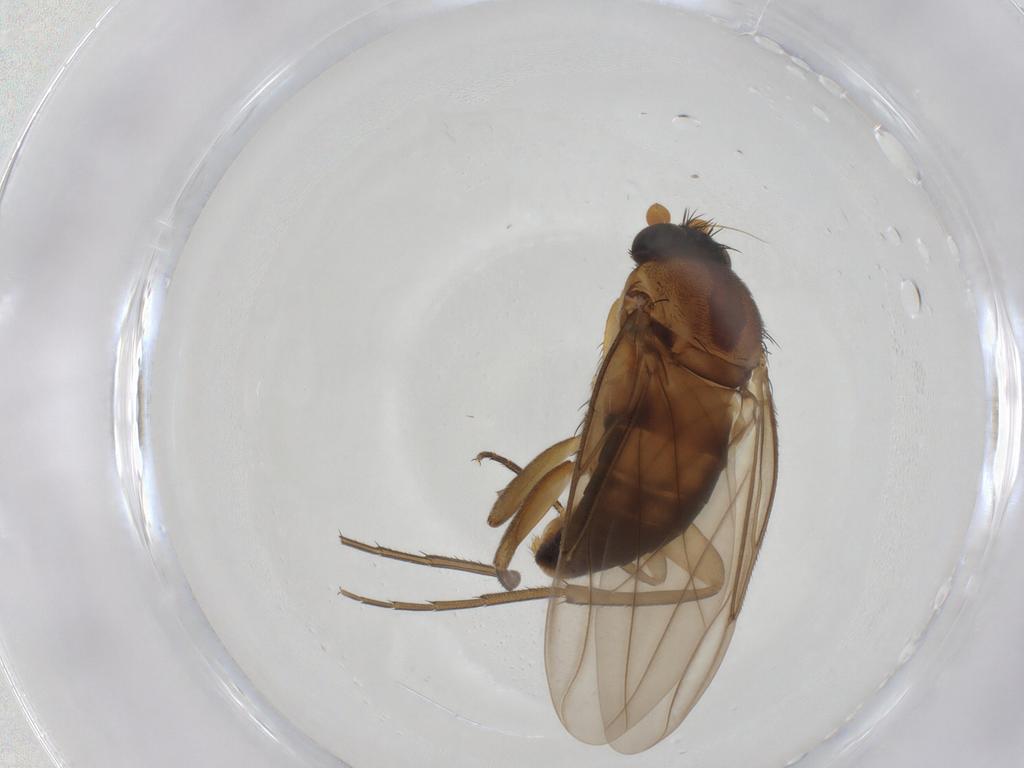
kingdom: Animalia
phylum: Arthropoda
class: Insecta
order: Diptera
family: Phoridae
